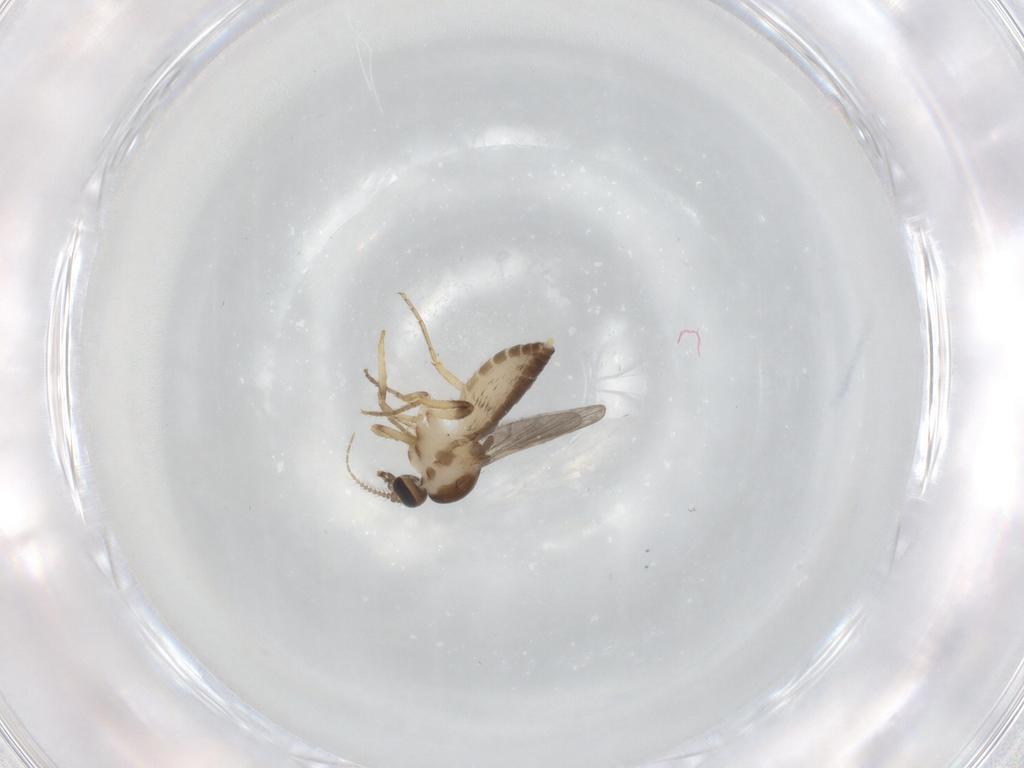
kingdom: Animalia
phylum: Arthropoda
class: Insecta
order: Diptera
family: Ceratopogonidae
